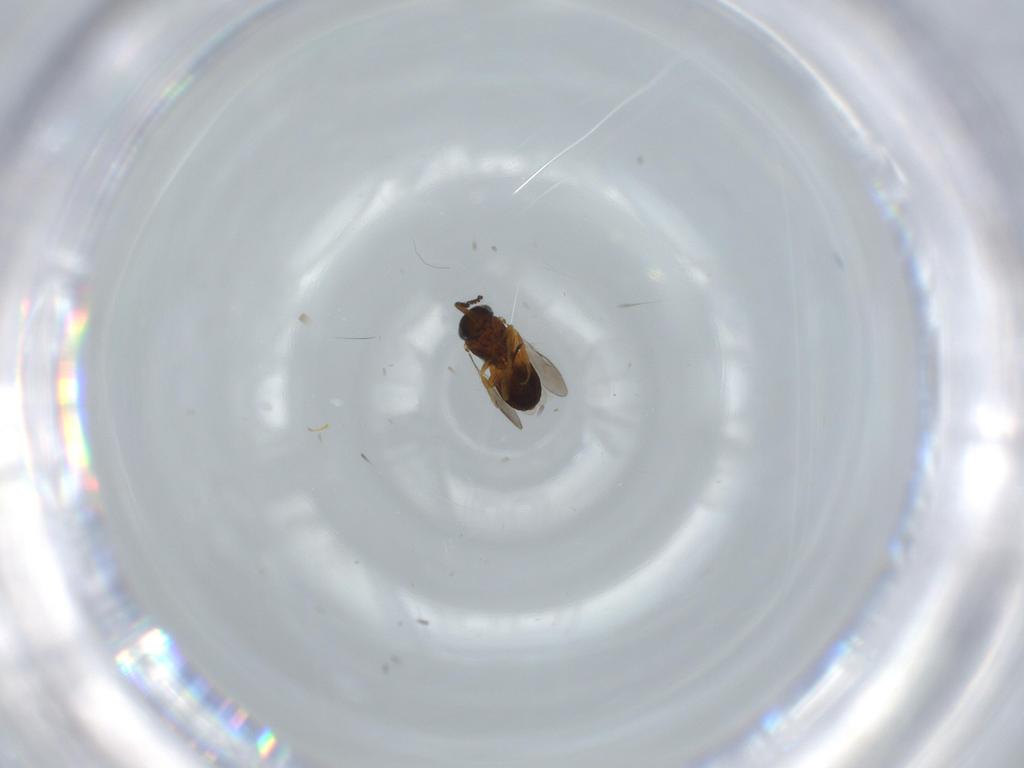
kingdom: Animalia
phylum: Arthropoda
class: Insecta
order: Hymenoptera
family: Scelionidae
